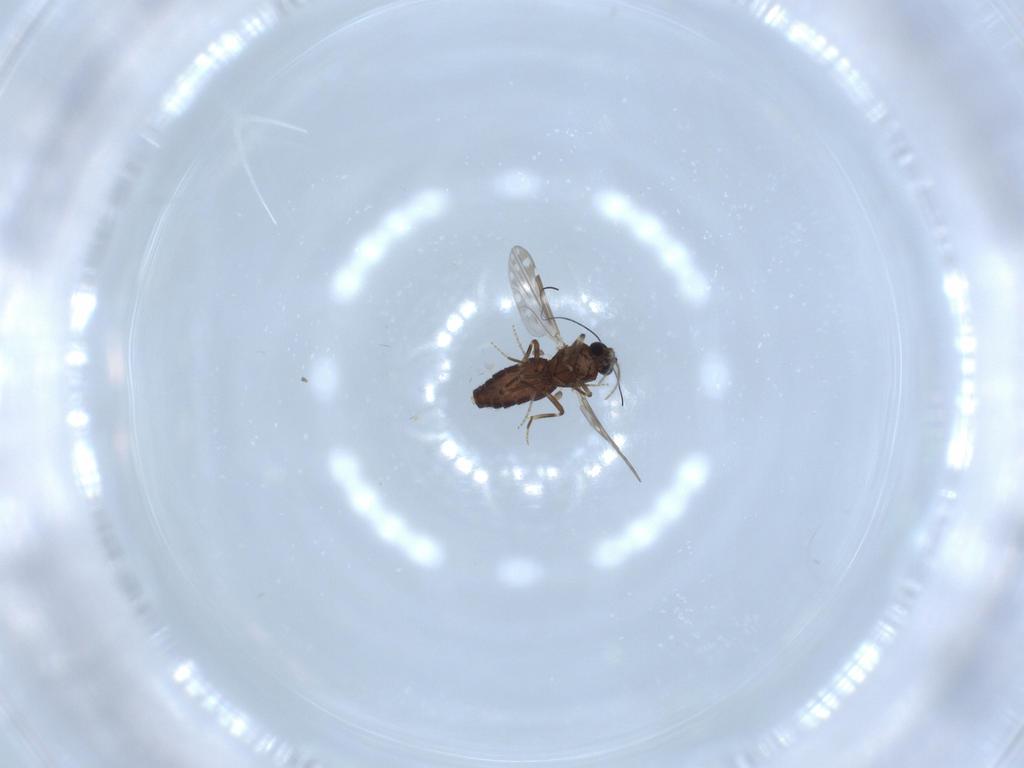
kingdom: Animalia
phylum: Arthropoda
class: Insecta
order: Diptera
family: Ceratopogonidae
